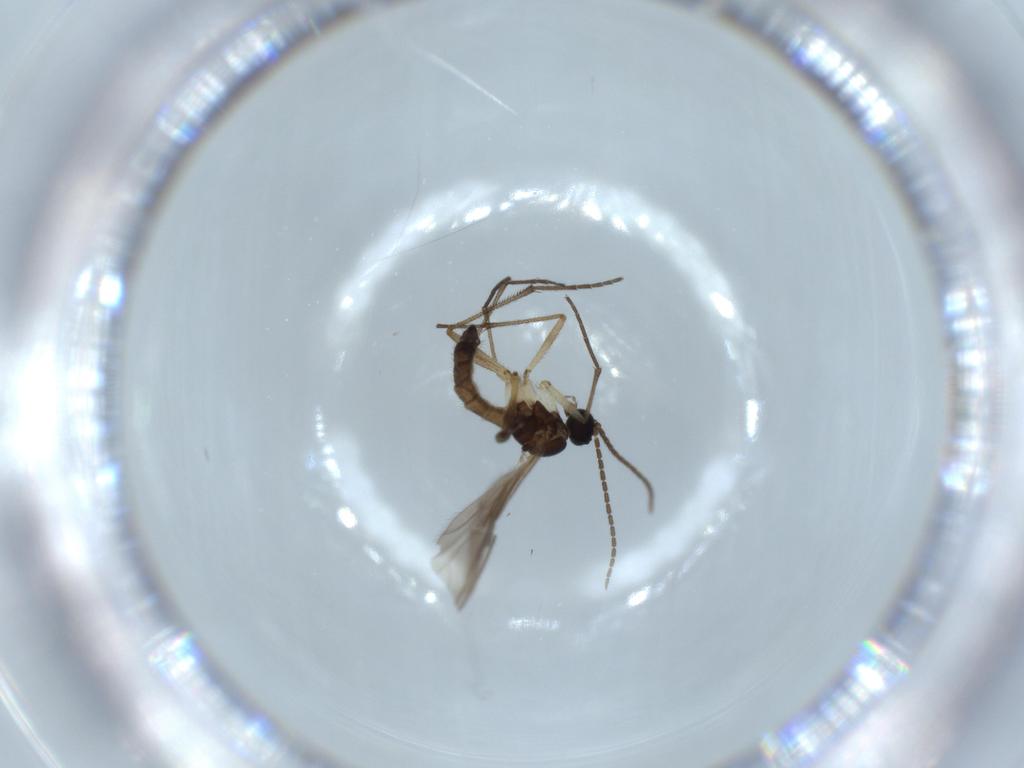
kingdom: Animalia
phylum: Arthropoda
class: Insecta
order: Diptera
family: Sciaridae
